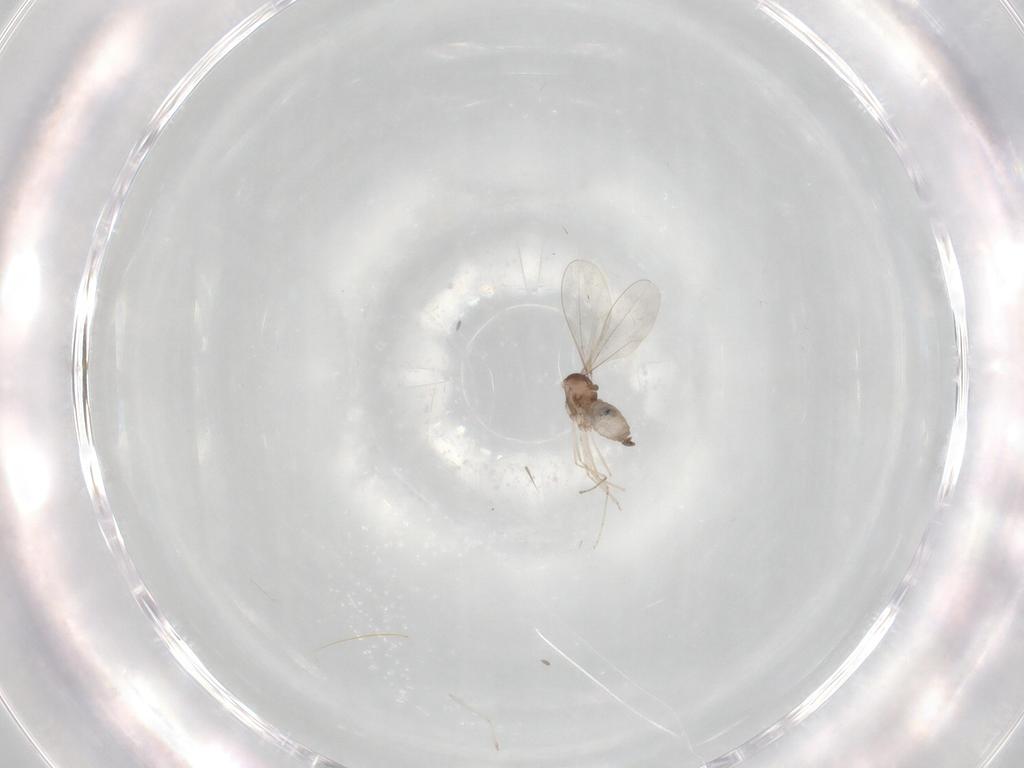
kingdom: Animalia
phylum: Arthropoda
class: Insecta
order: Diptera
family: Cecidomyiidae
